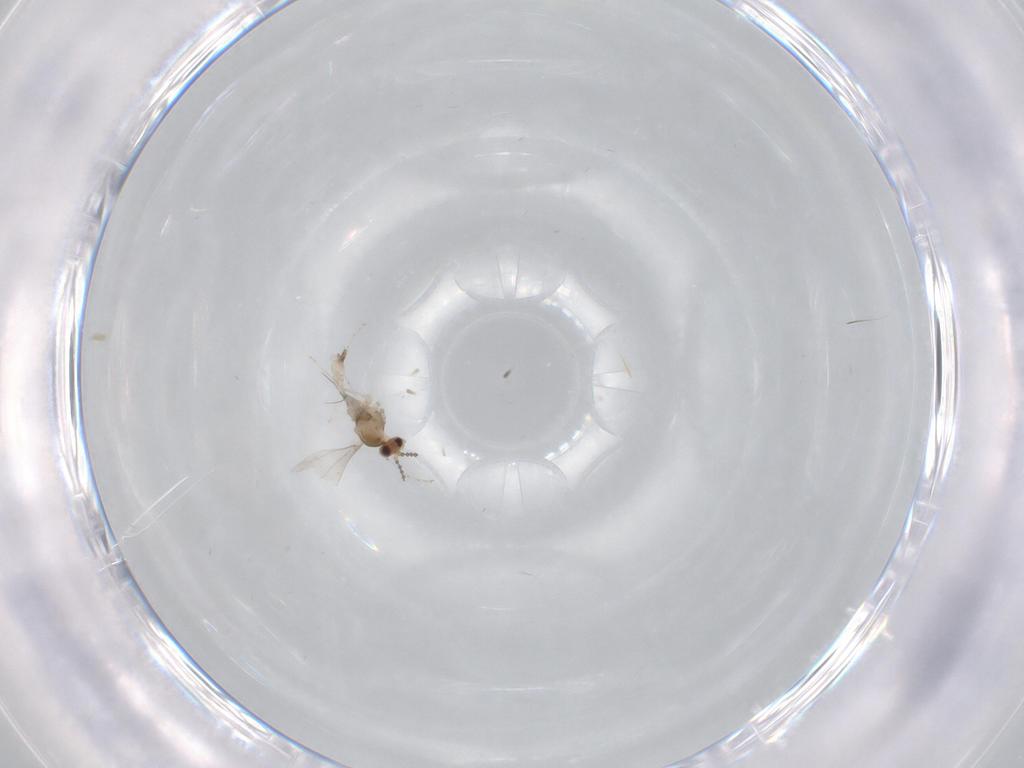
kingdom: Animalia
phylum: Arthropoda
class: Insecta
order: Diptera
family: Cecidomyiidae
